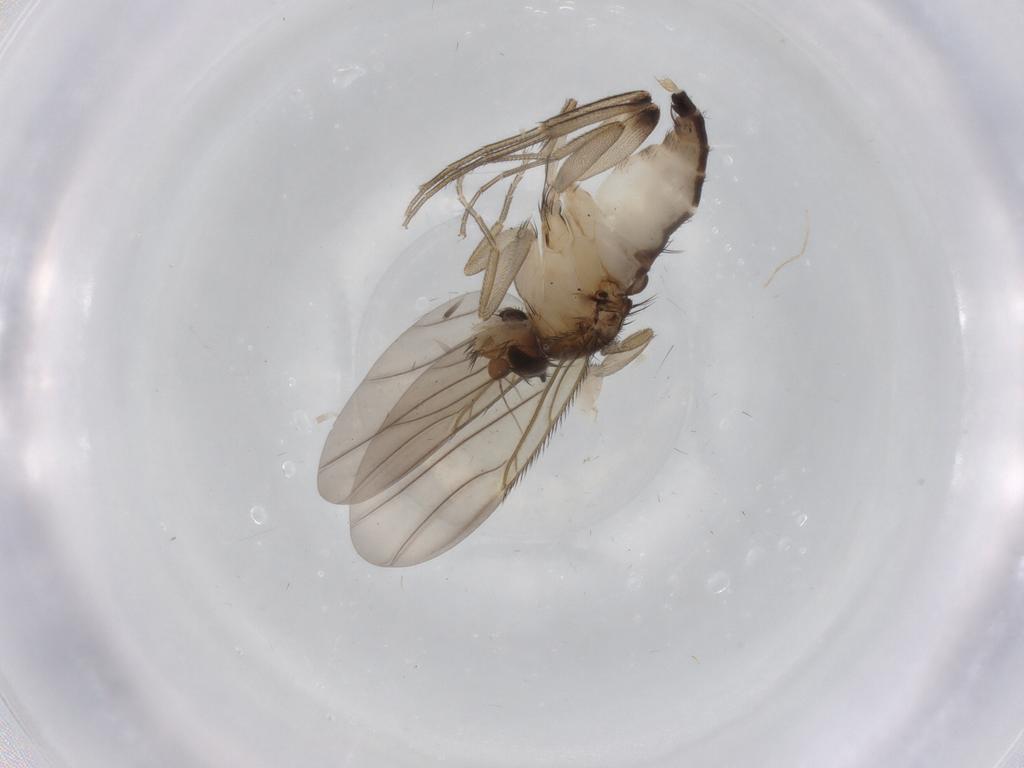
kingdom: Animalia
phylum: Arthropoda
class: Insecta
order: Diptera
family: Phoridae
